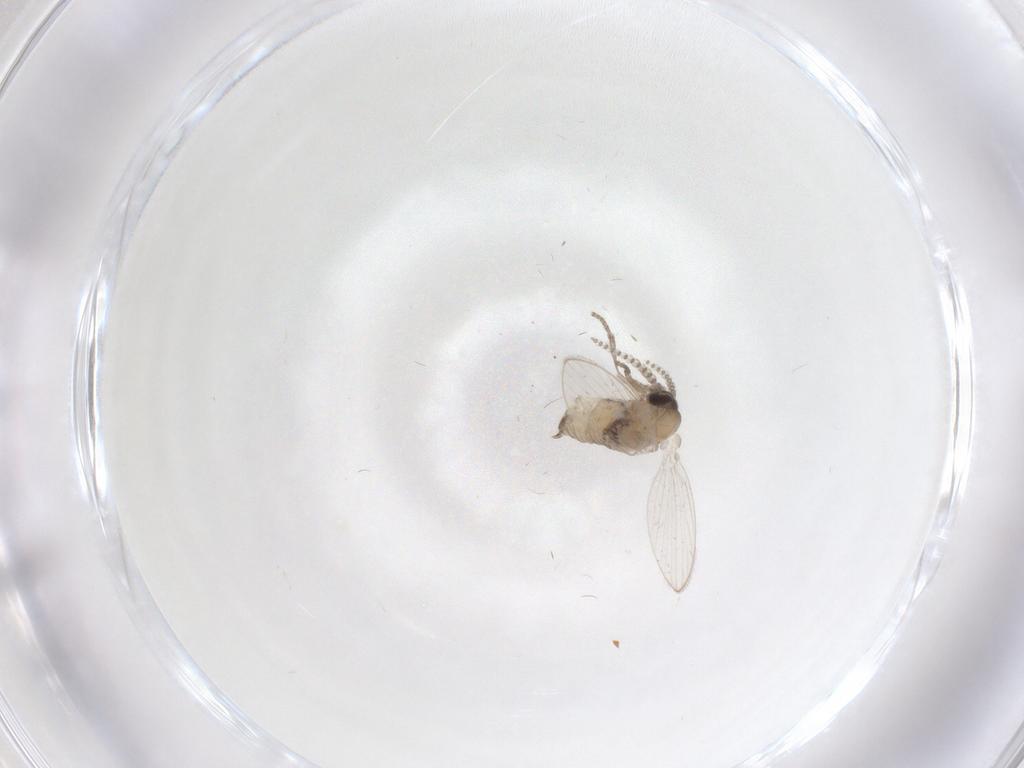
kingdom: Animalia
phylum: Arthropoda
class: Insecta
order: Diptera
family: Psychodidae
